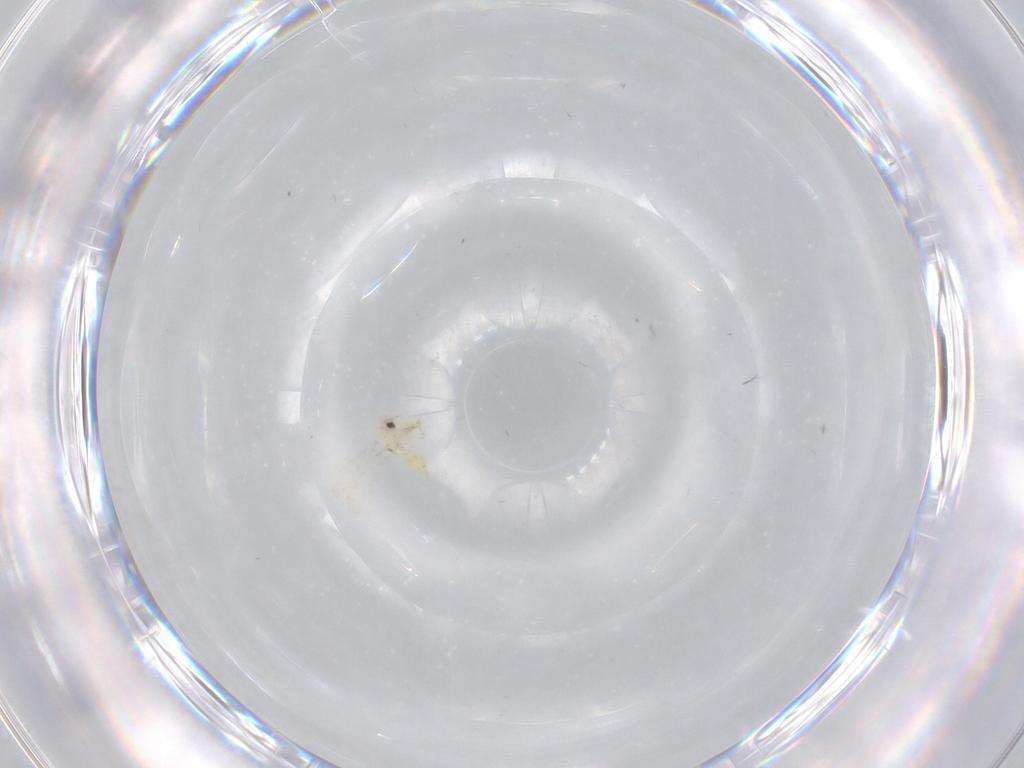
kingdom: Animalia
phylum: Arthropoda
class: Insecta
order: Hemiptera
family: Aleyrodidae
